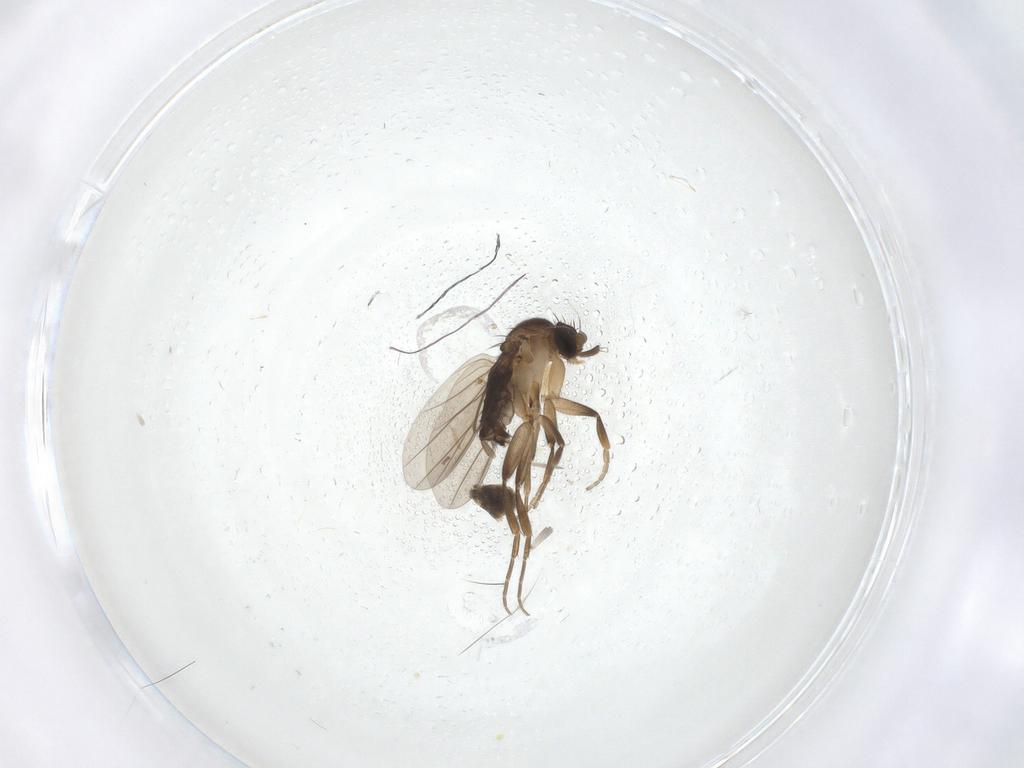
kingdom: Animalia
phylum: Arthropoda
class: Insecta
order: Diptera
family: Phoridae
